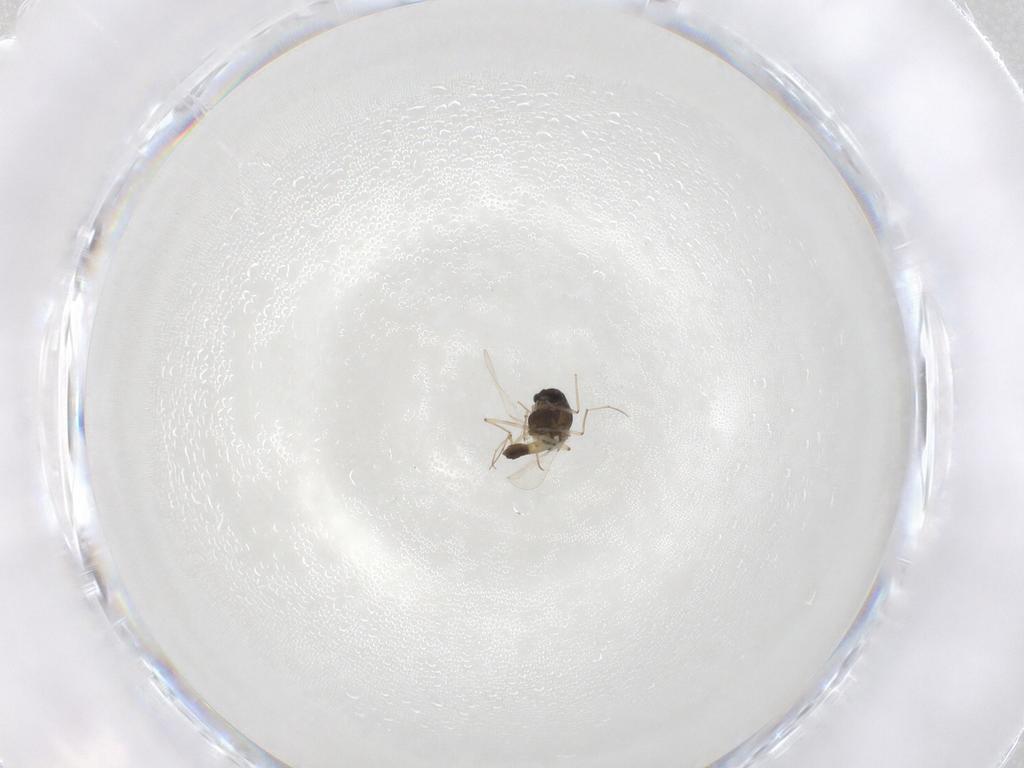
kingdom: Animalia
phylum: Arthropoda
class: Insecta
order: Diptera
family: Chironomidae
